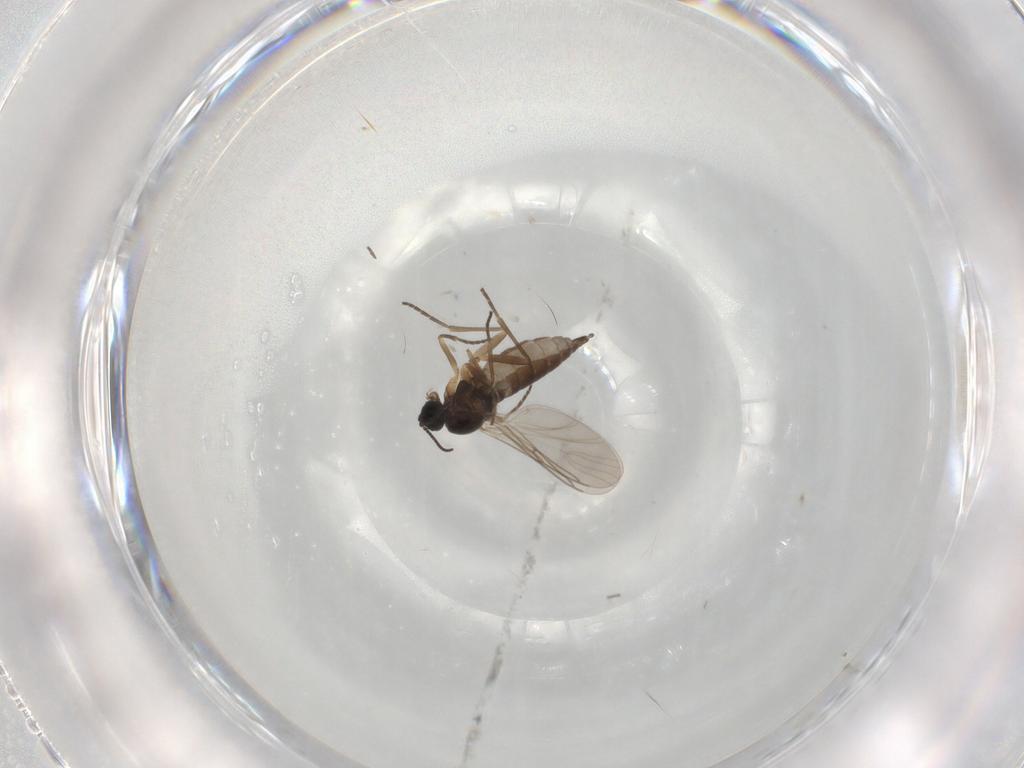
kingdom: Animalia
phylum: Arthropoda
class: Insecta
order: Diptera
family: Sciaridae
